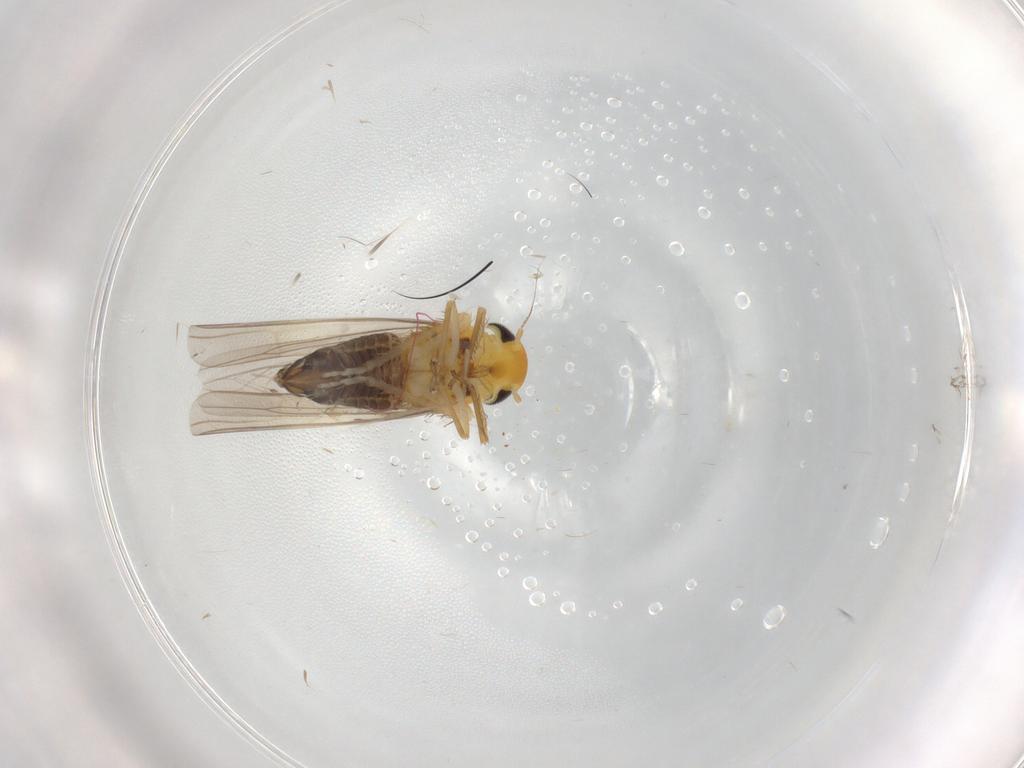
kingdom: Animalia
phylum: Arthropoda
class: Insecta
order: Hemiptera
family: Cicadellidae
